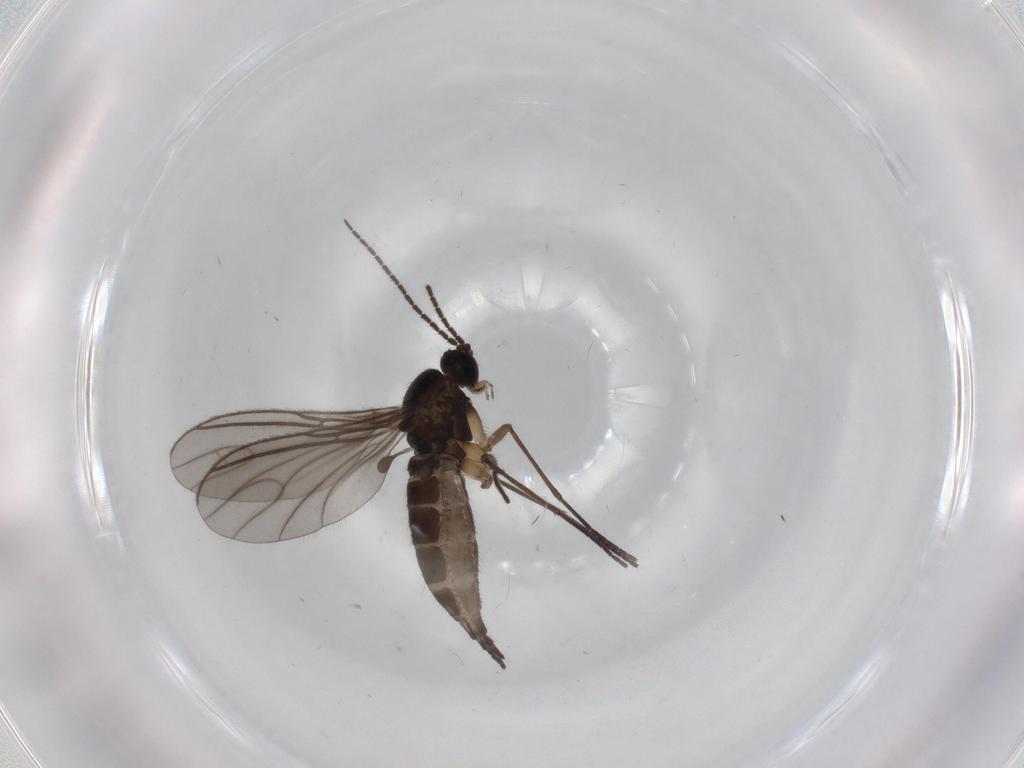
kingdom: Animalia
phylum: Arthropoda
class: Insecta
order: Diptera
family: Sciaridae
